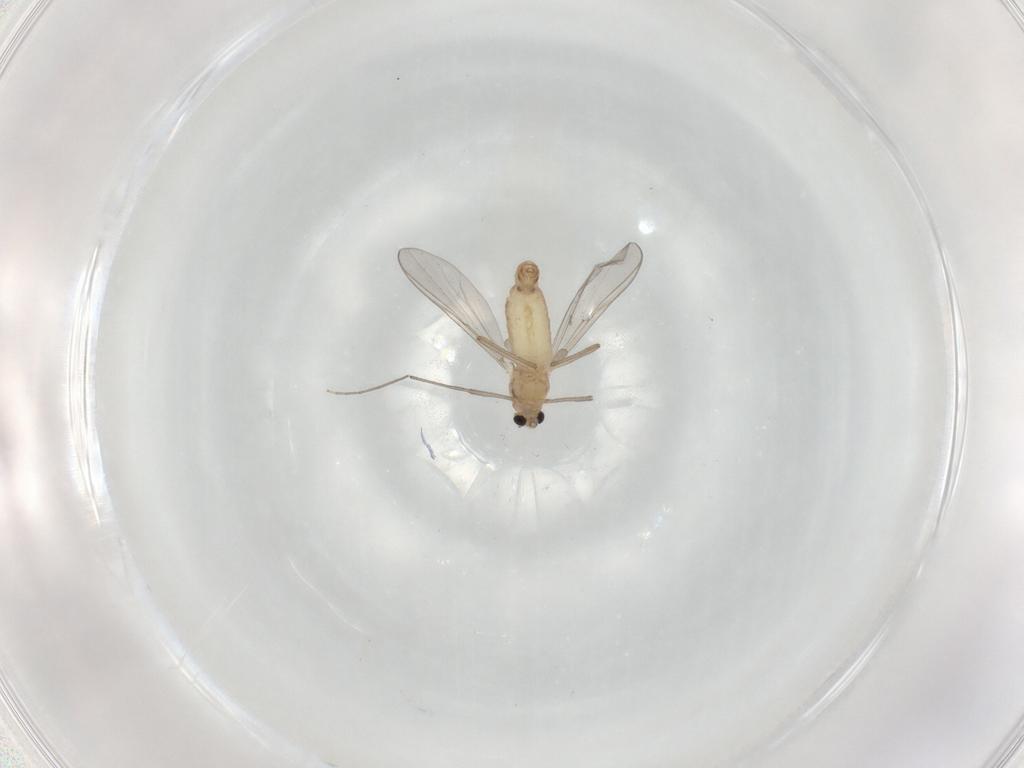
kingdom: Animalia
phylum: Arthropoda
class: Insecta
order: Diptera
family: Chironomidae
